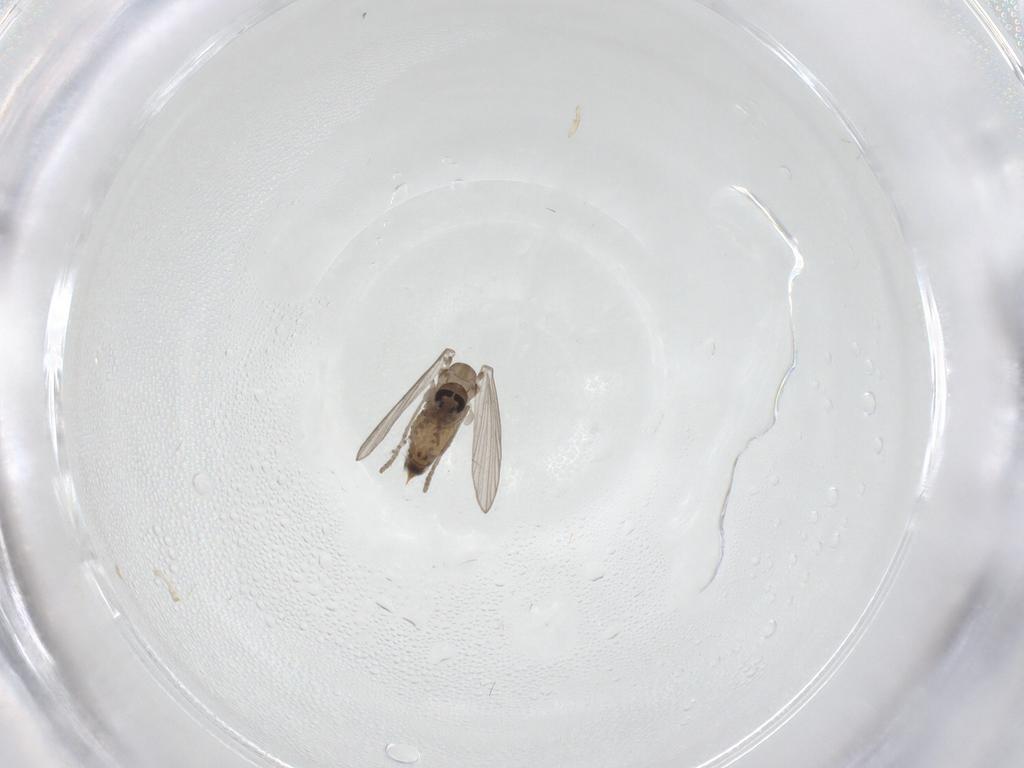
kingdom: Animalia
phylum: Arthropoda
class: Insecta
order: Diptera
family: Psychodidae
